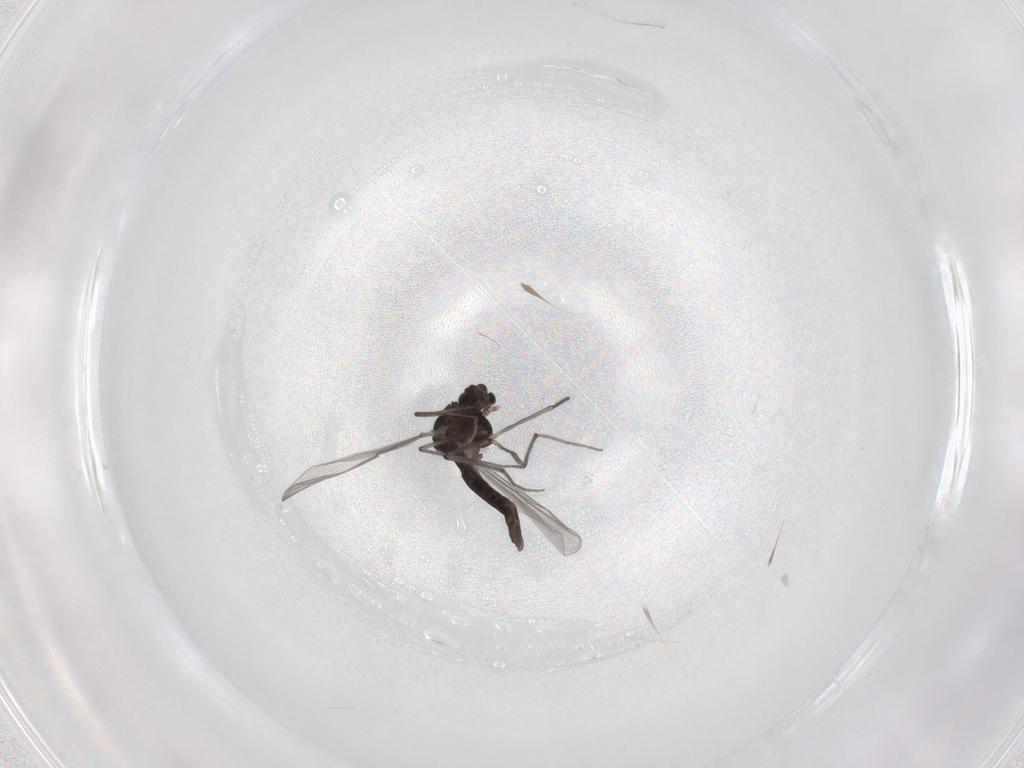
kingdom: Animalia
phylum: Arthropoda
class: Insecta
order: Diptera
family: Chironomidae
